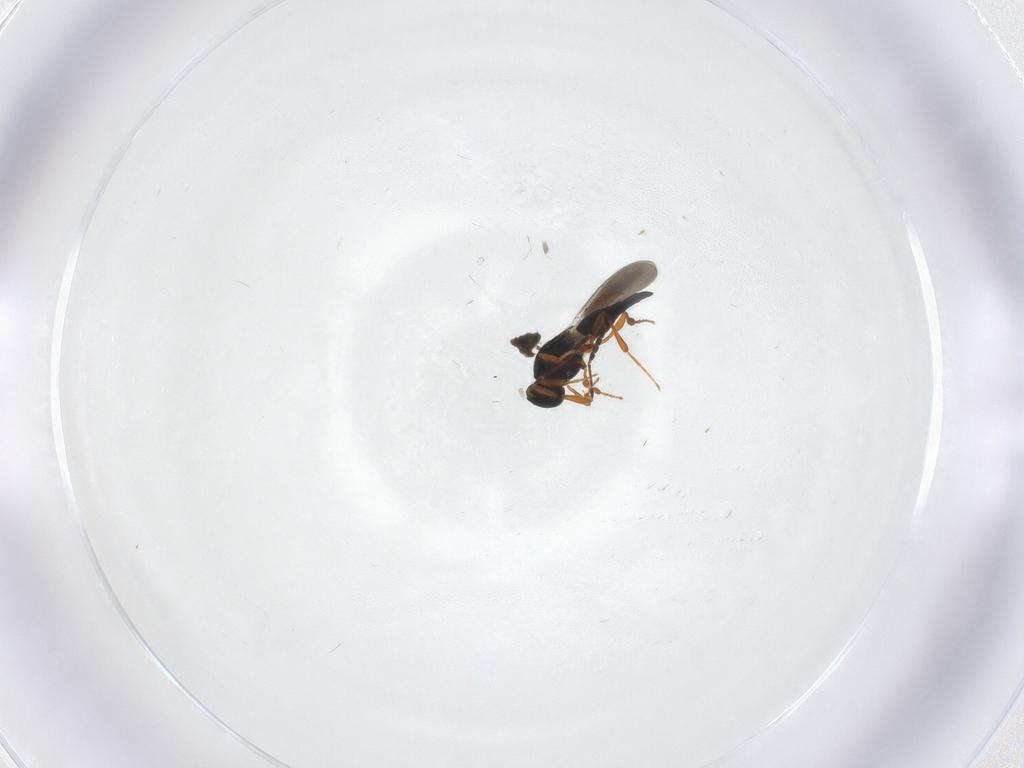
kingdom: Animalia
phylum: Arthropoda
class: Insecta
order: Hymenoptera
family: Platygastridae
